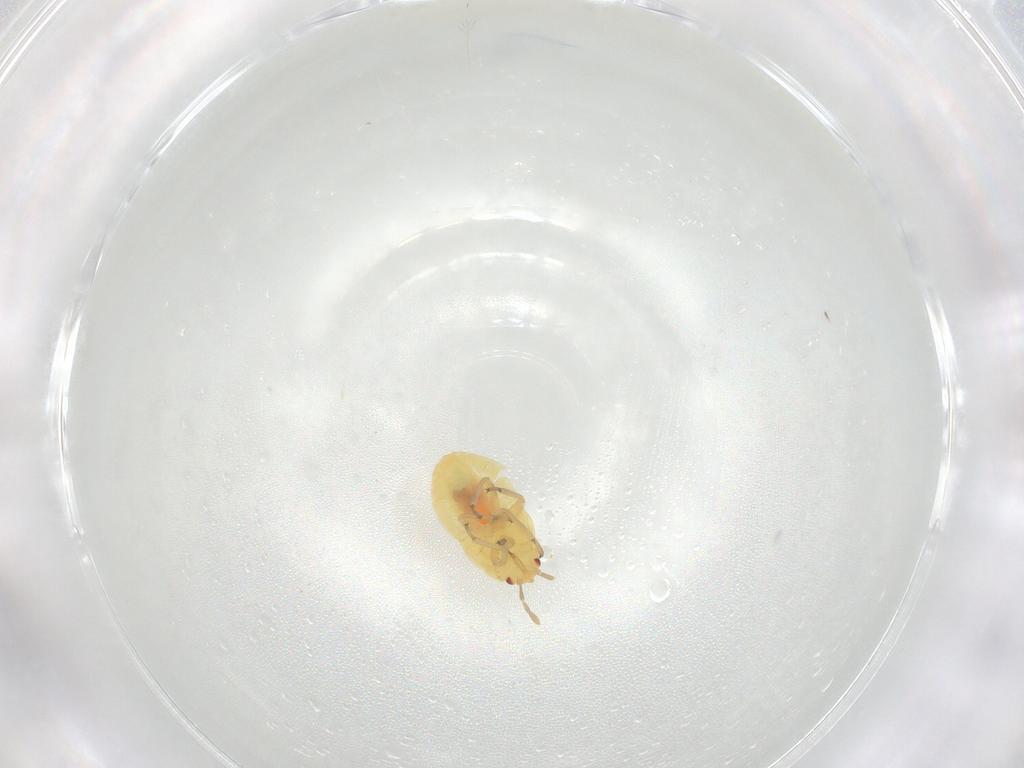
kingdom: Animalia
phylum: Arthropoda
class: Insecta
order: Hemiptera
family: Anthocoridae
